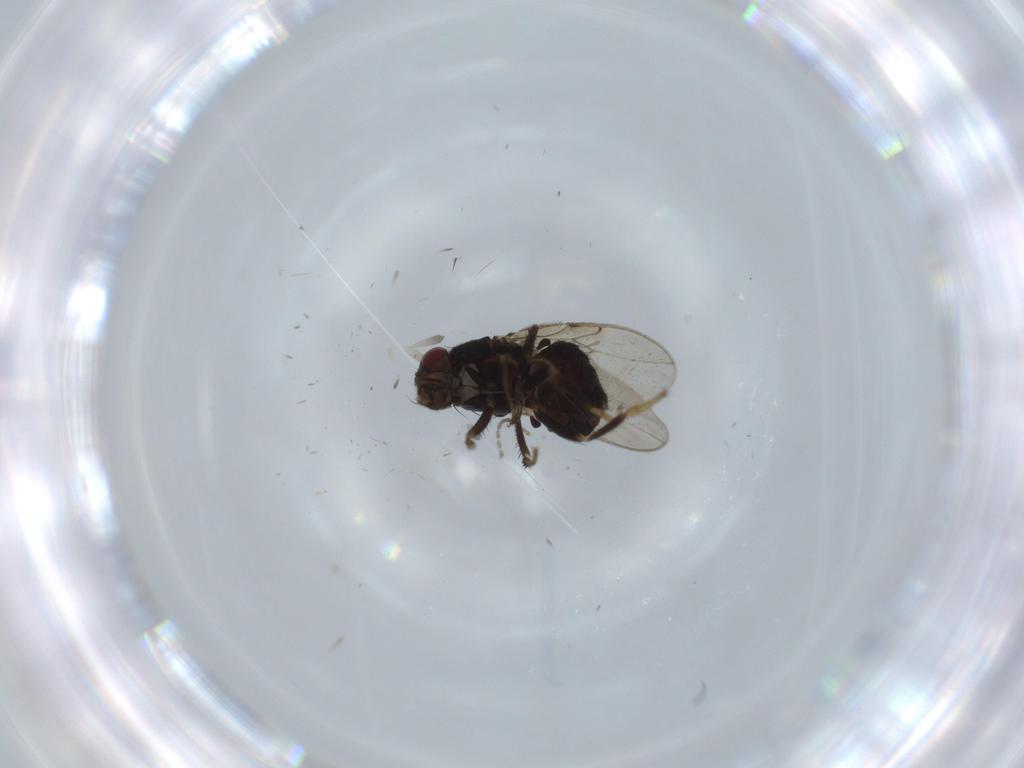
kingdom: Animalia
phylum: Arthropoda
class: Insecta
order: Diptera
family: Sphaeroceridae
